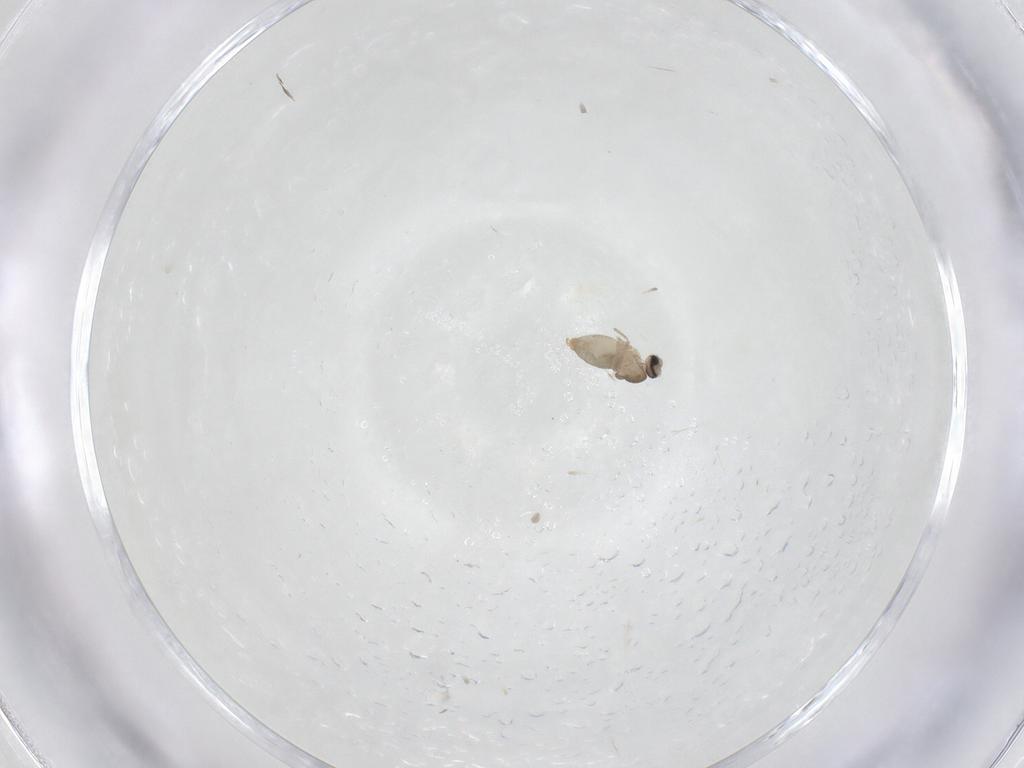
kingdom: Animalia
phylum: Arthropoda
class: Insecta
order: Diptera
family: Cecidomyiidae
